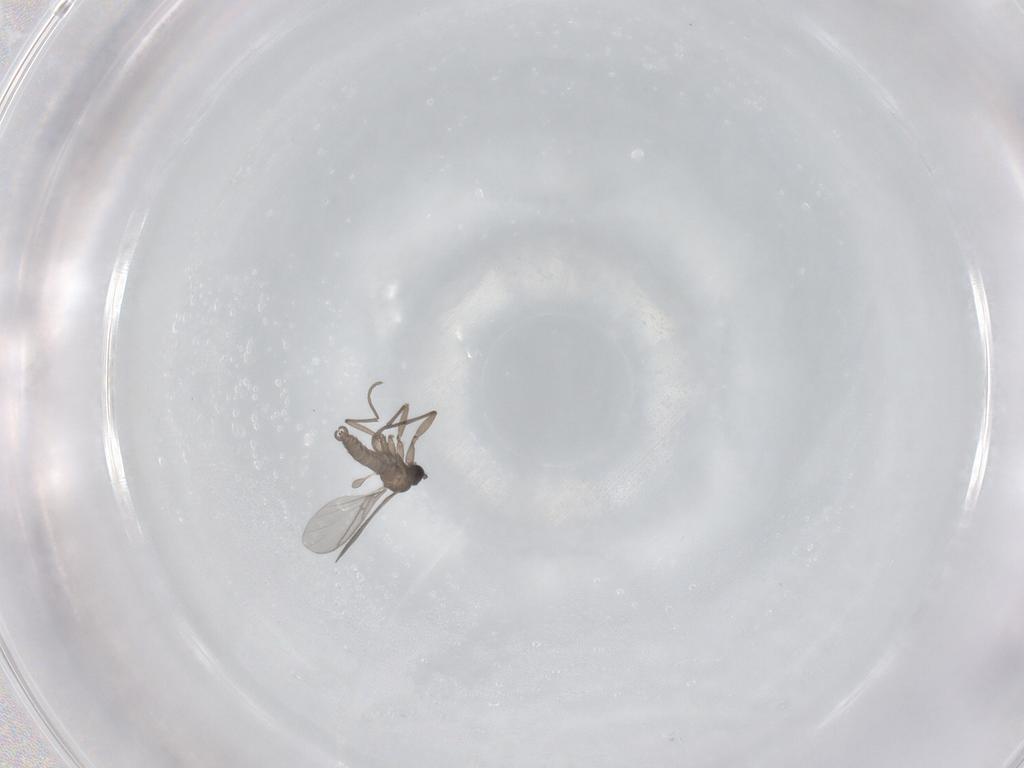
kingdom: Animalia
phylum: Arthropoda
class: Insecta
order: Diptera
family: Sciaridae
